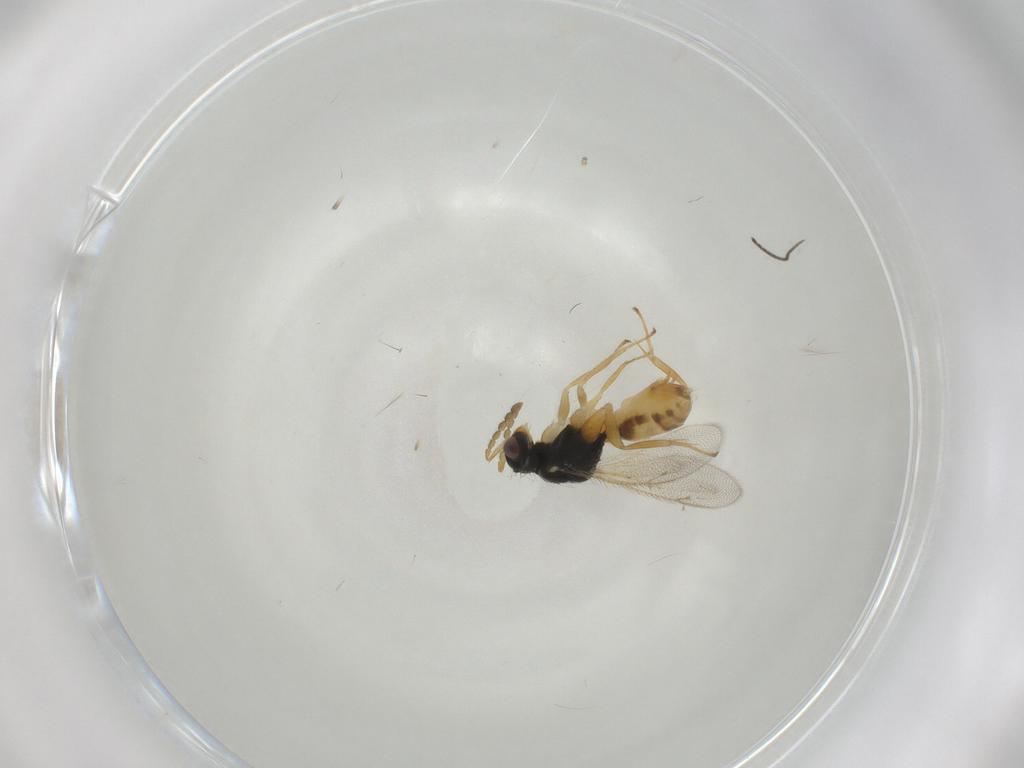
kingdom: Animalia
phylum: Arthropoda
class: Insecta
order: Hymenoptera
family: Eulophidae
